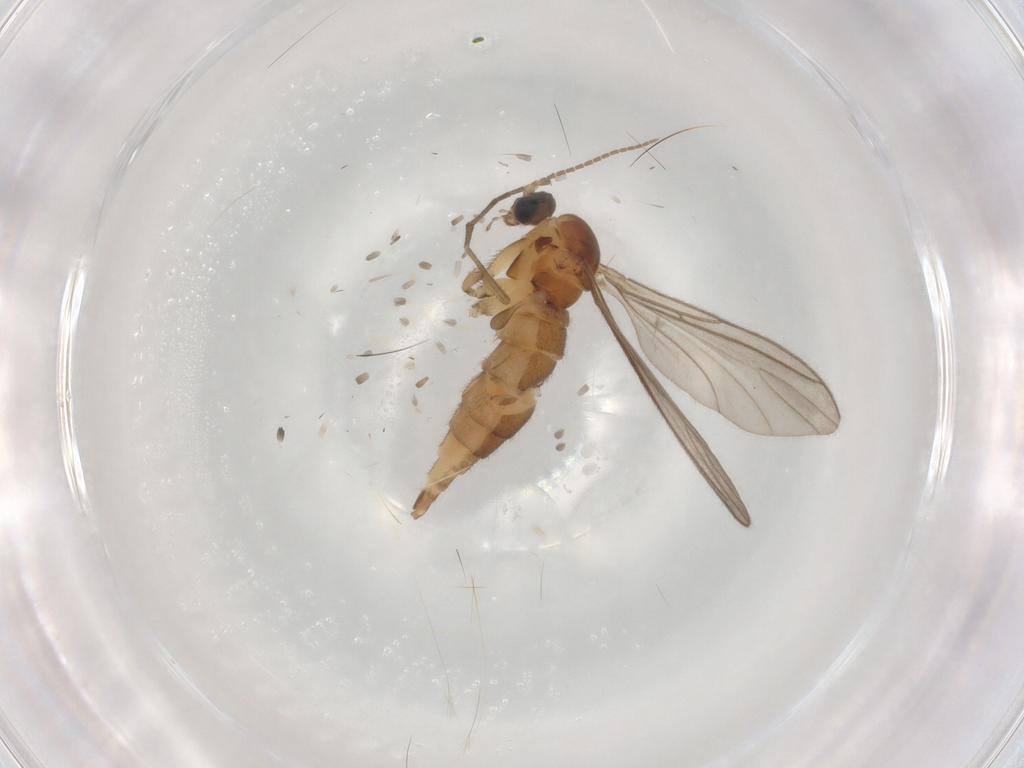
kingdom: Animalia
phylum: Arthropoda
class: Insecta
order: Diptera
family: Sciaridae
